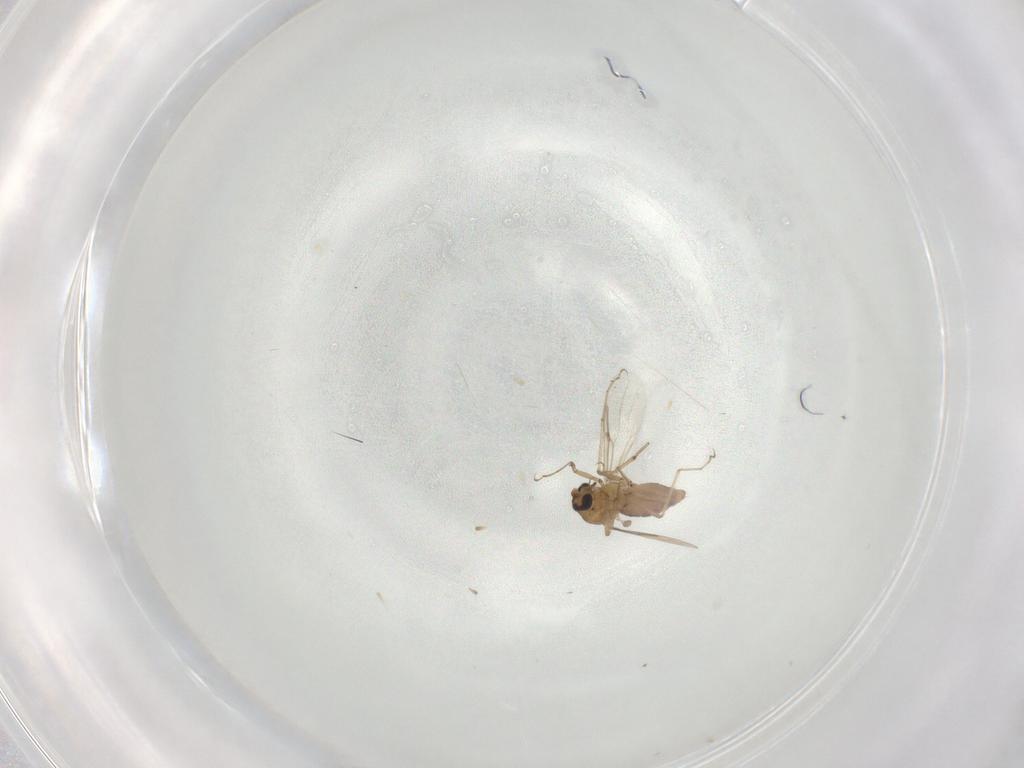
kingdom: Animalia
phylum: Arthropoda
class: Insecta
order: Diptera
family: Ceratopogonidae
